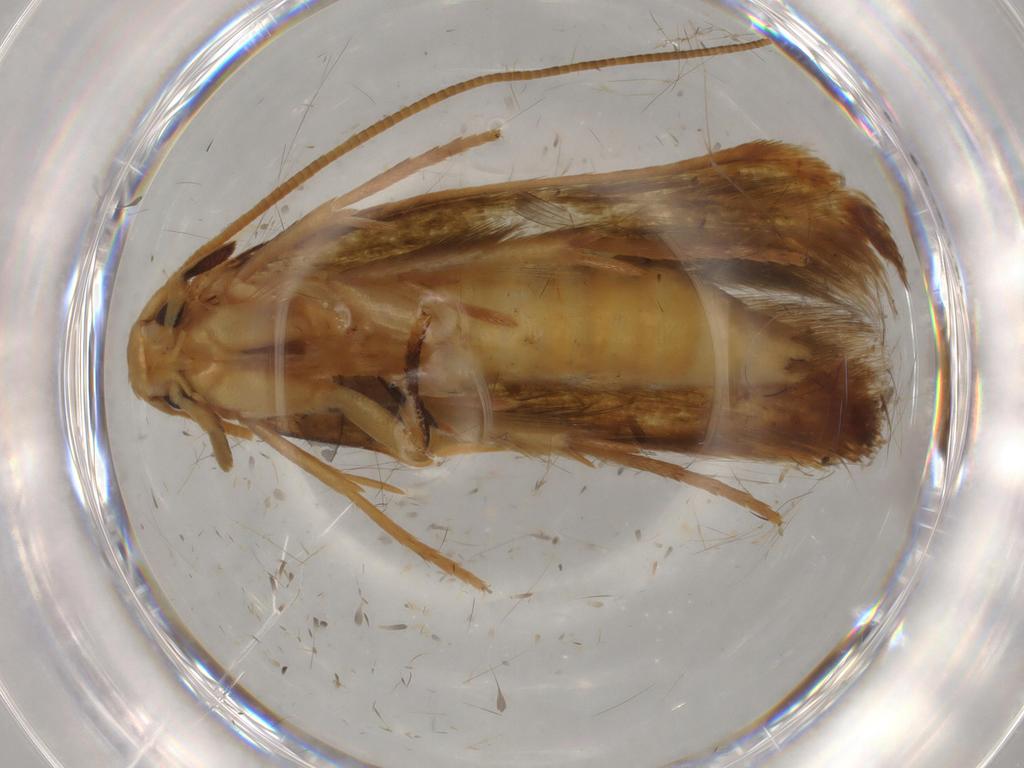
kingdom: Animalia
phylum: Arthropoda
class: Insecta
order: Lepidoptera
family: Tineidae
